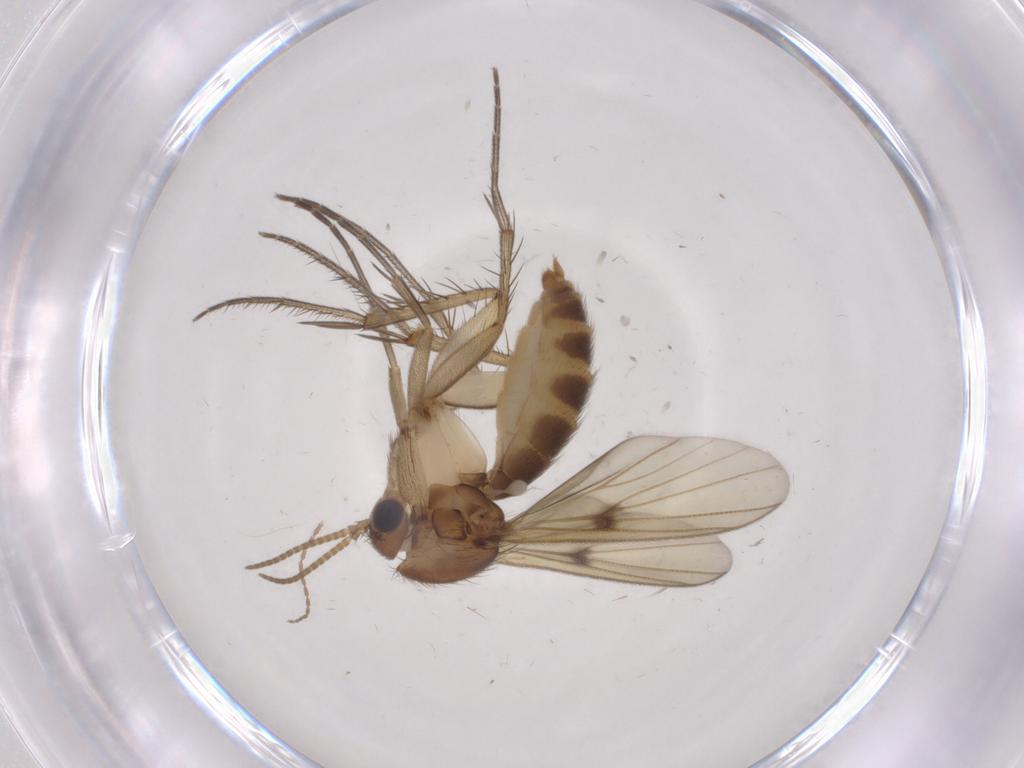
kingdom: Animalia
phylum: Arthropoda
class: Insecta
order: Diptera
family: Cecidomyiidae
